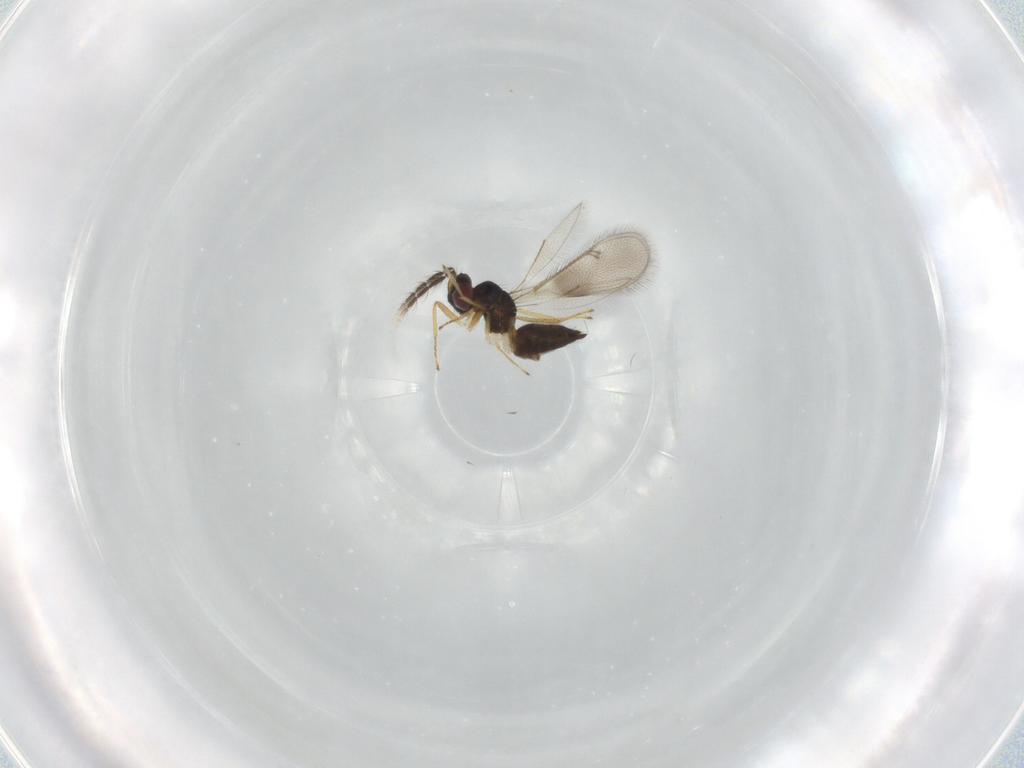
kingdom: Animalia
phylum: Arthropoda
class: Insecta
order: Hymenoptera
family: Eulophidae
